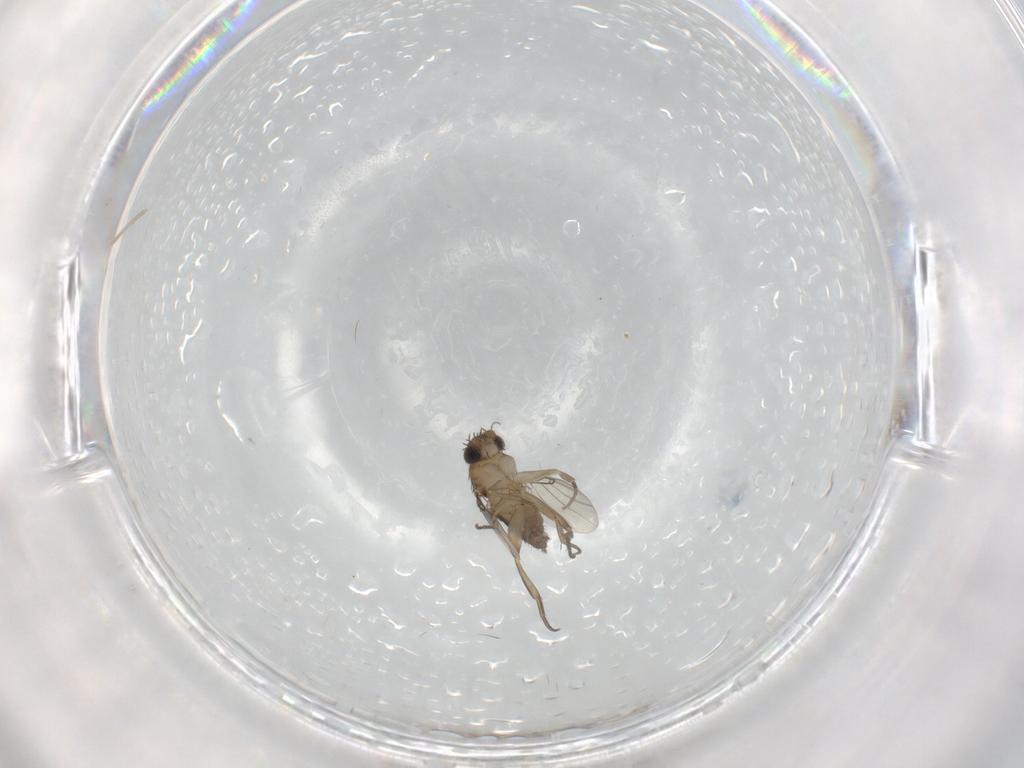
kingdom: Animalia
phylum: Arthropoda
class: Insecta
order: Diptera
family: Phoridae
